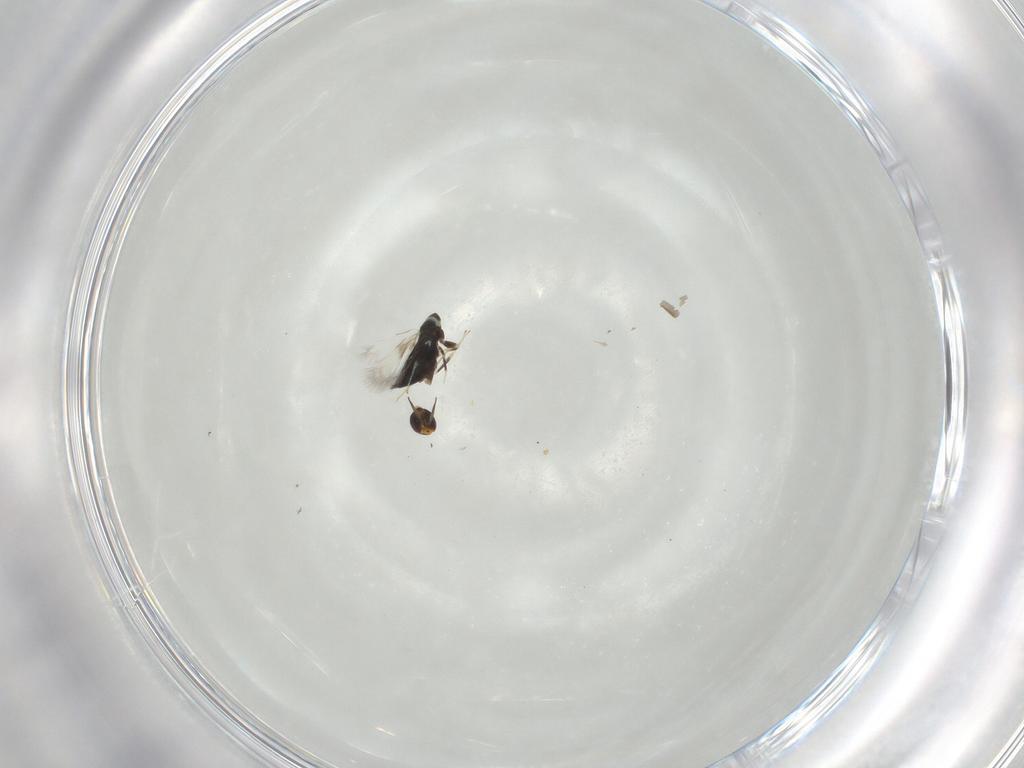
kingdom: Animalia
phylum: Arthropoda
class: Insecta
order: Hymenoptera
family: Signiphoridae
